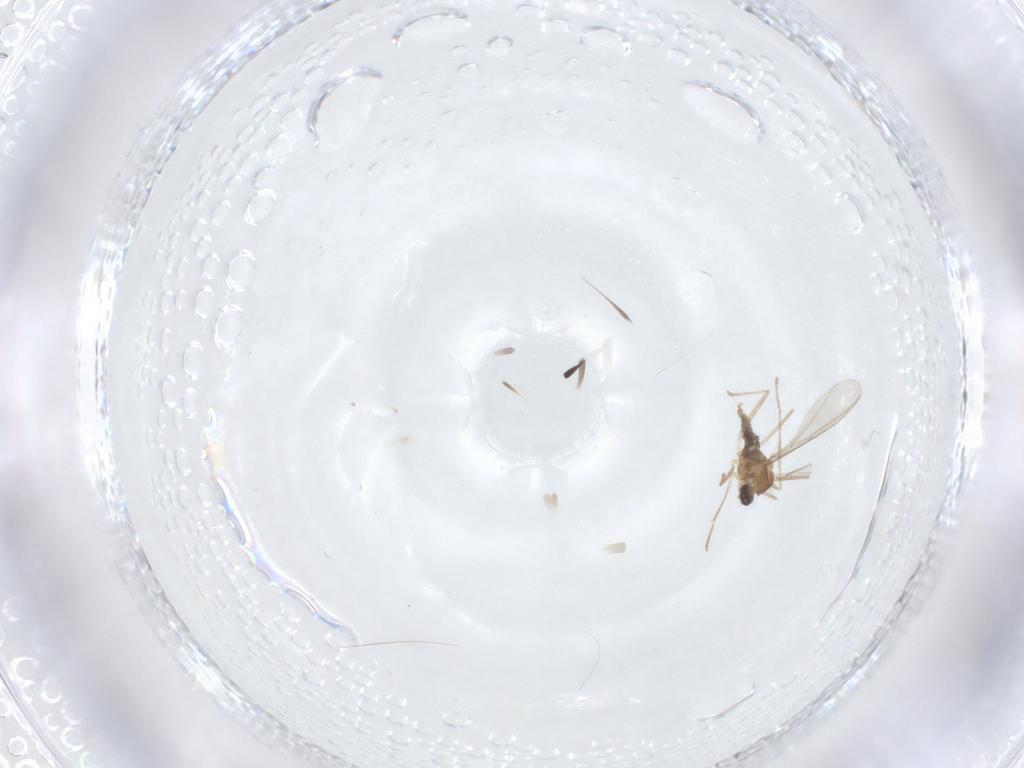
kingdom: Animalia
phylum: Arthropoda
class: Insecta
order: Diptera
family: Cecidomyiidae
